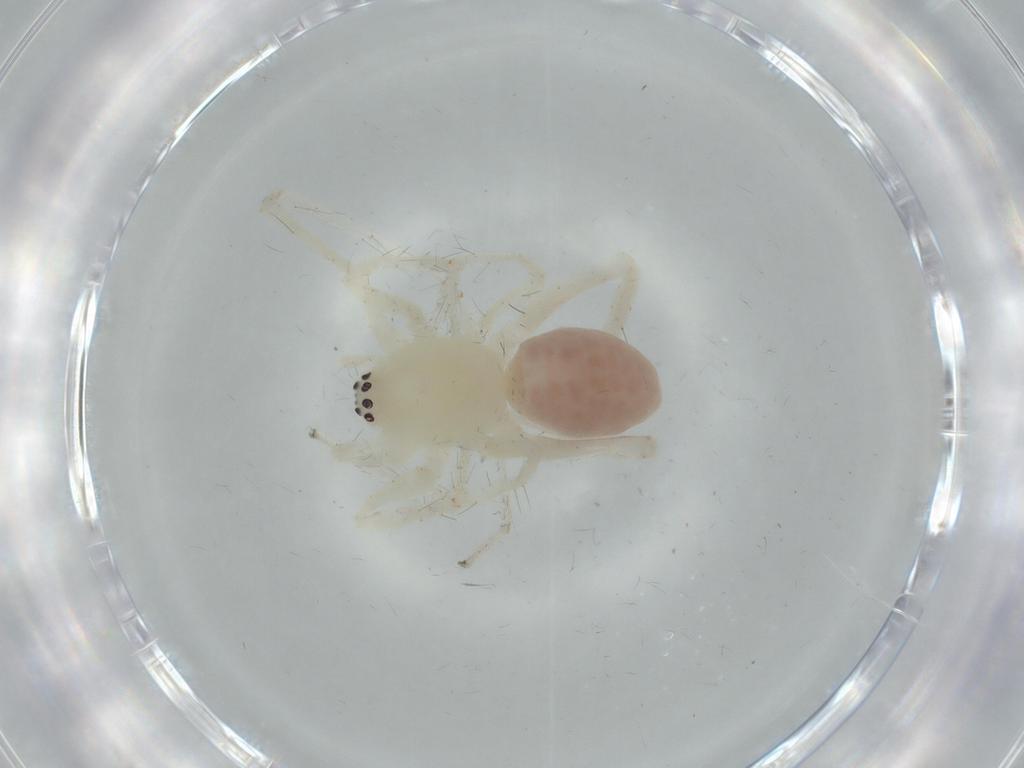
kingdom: Animalia
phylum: Arthropoda
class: Arachnida
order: Araneae
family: Anyphaenidae
